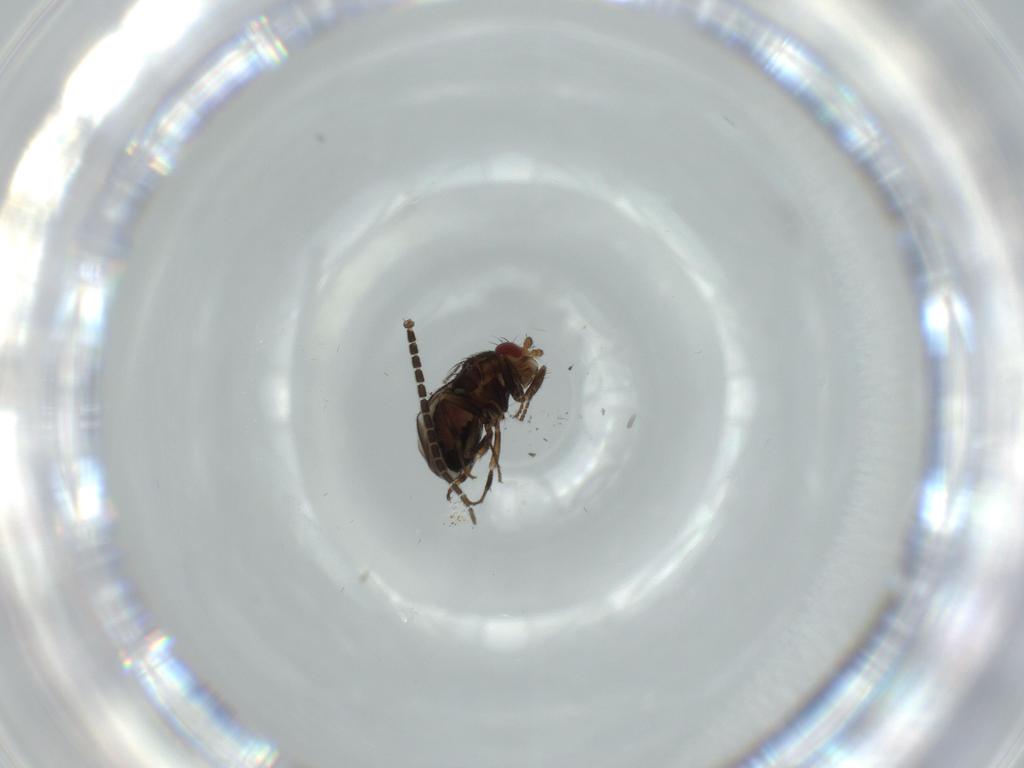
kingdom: Animalia
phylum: Arthropoda
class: Insecta
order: Diptera
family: Sciaridae
